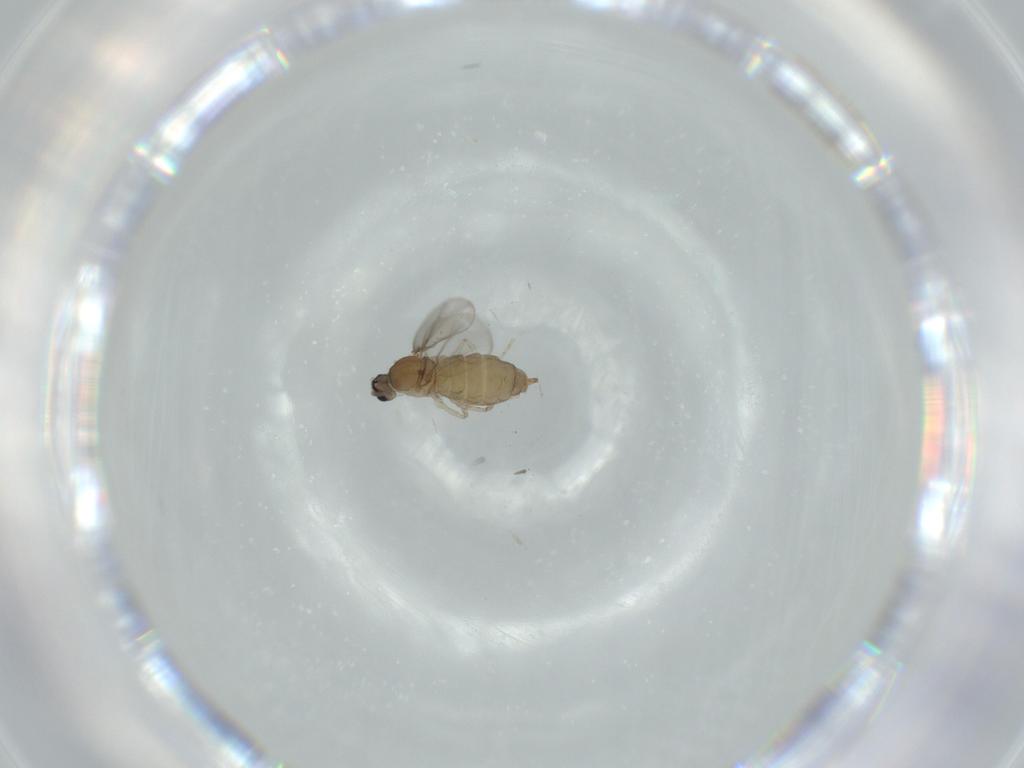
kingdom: Animalia
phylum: Arthropoda
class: Insecta
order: Diptera
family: Cecidomyiidae
